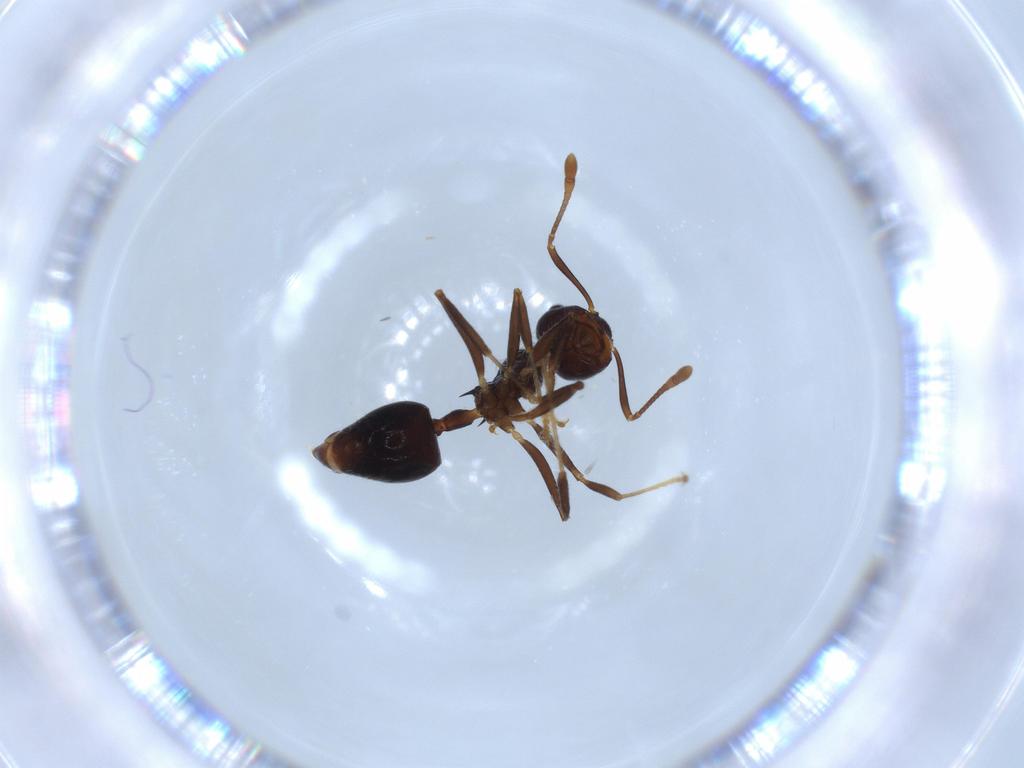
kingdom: Animalia
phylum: Arthropoda
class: Insecta
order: Hymenoptera
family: Formicidae
